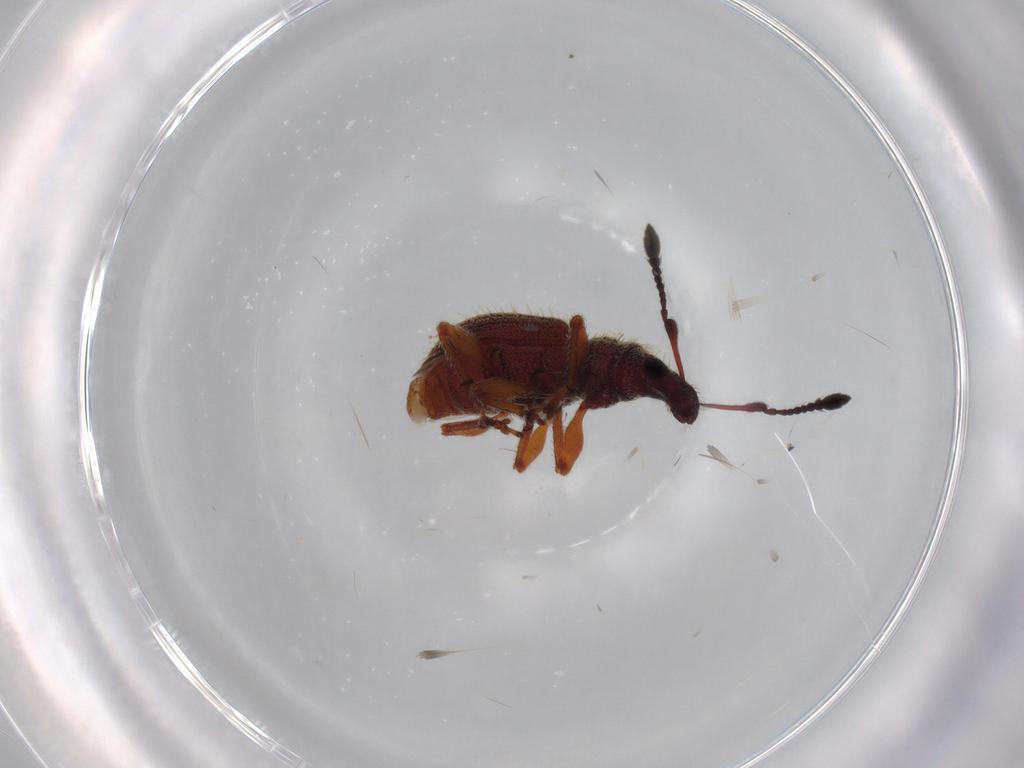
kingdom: Animalia
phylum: Arthropoda
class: Insecta
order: Coleoptera
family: Curculionidae
